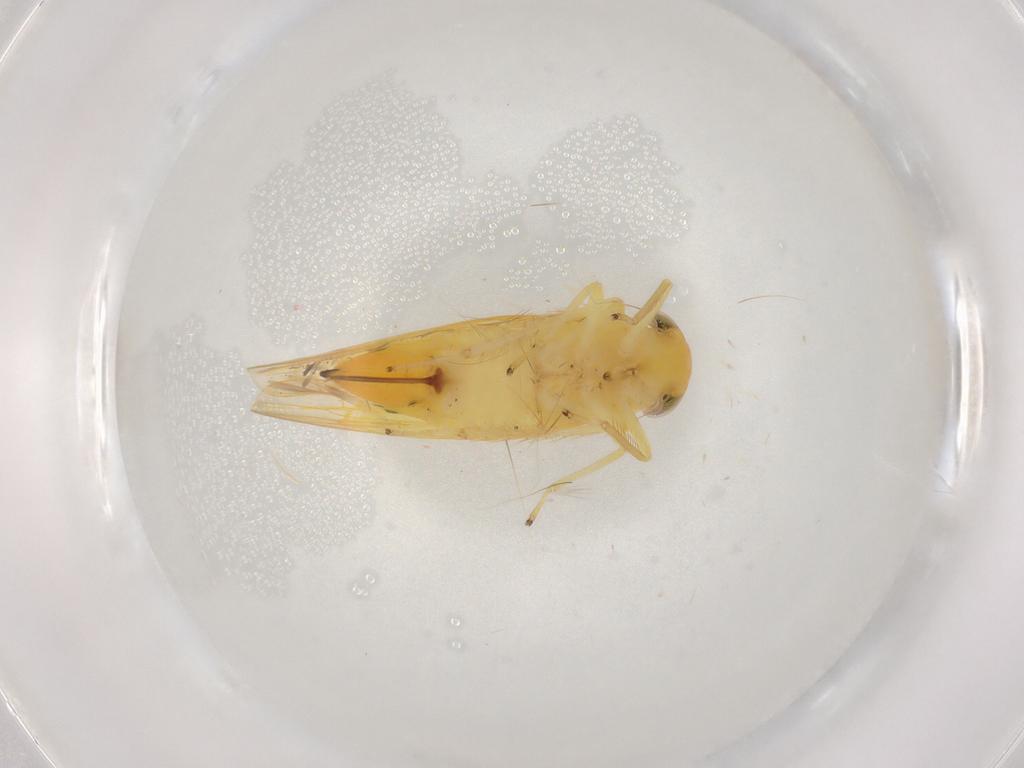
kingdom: Animalia
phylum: Arthropoda
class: Insecta
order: Hemiptera
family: Cicadellidae
